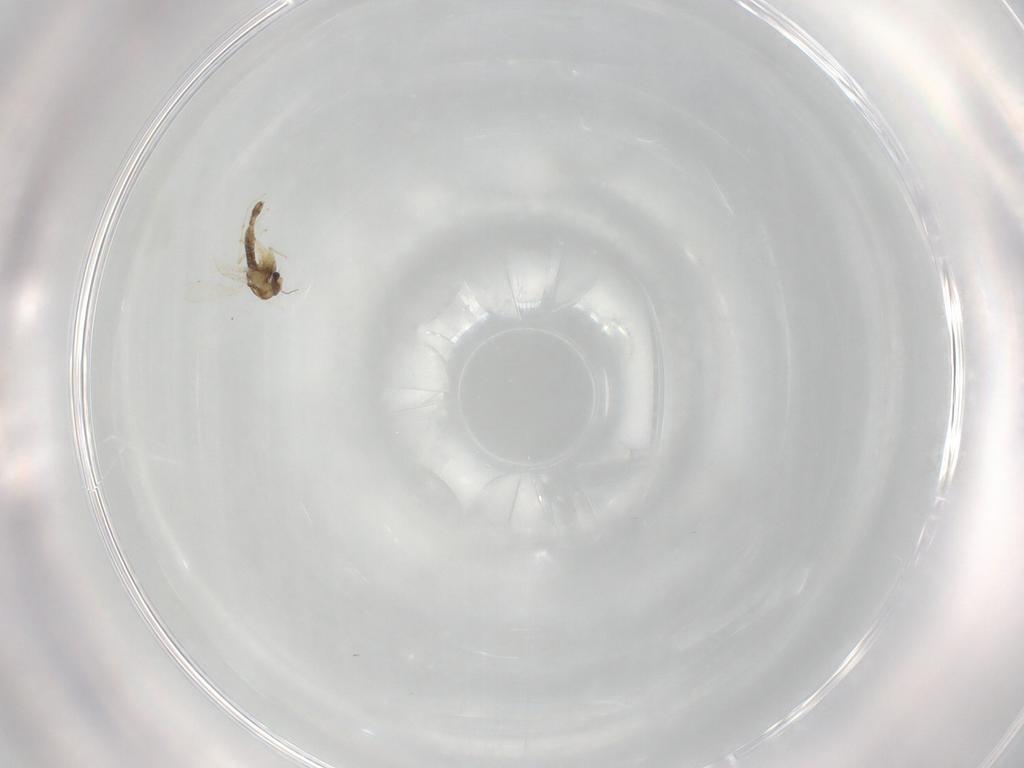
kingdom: Animalia
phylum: Arthropoda
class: Insecta
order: Diptera
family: Chironomidae
